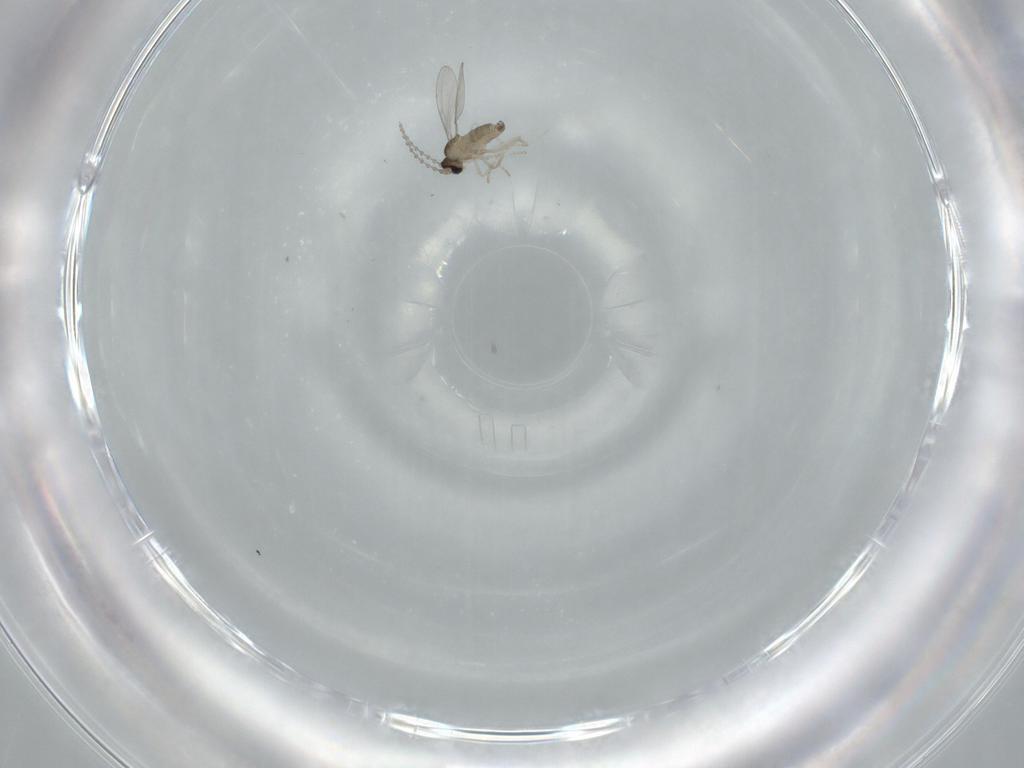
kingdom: Animalia
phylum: Arthropoda
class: Insecta
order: Diptera
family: Cecidomyiidae
